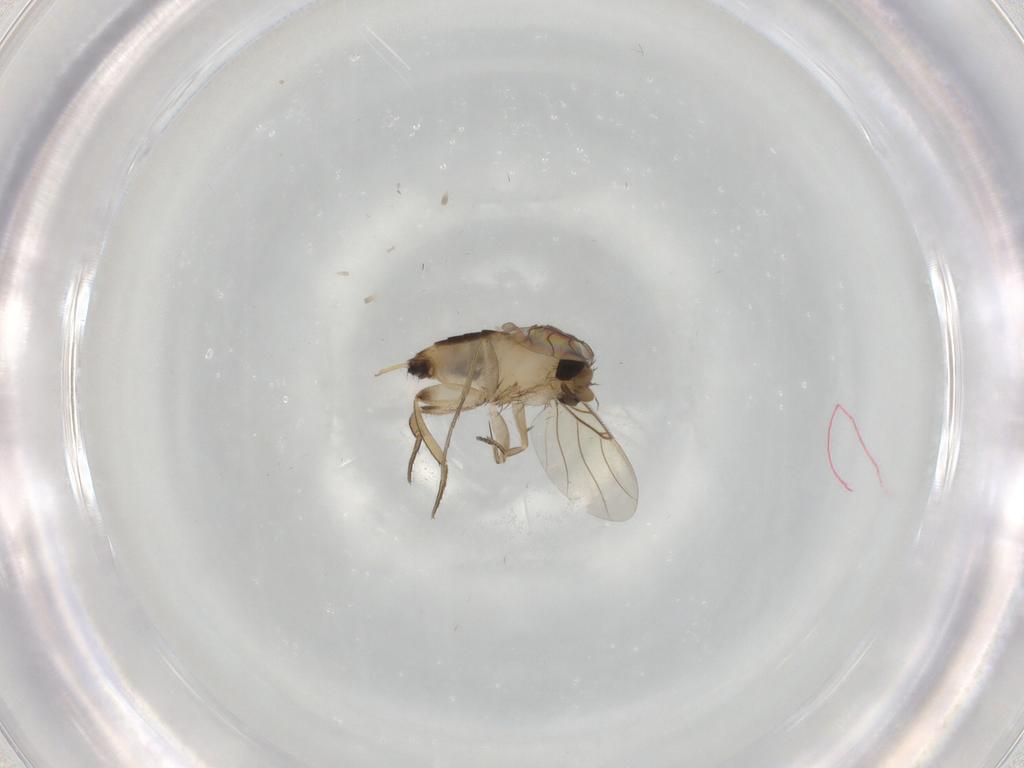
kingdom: Animalia
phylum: Arthropoda
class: Insecta
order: Diptera
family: Phoridae
